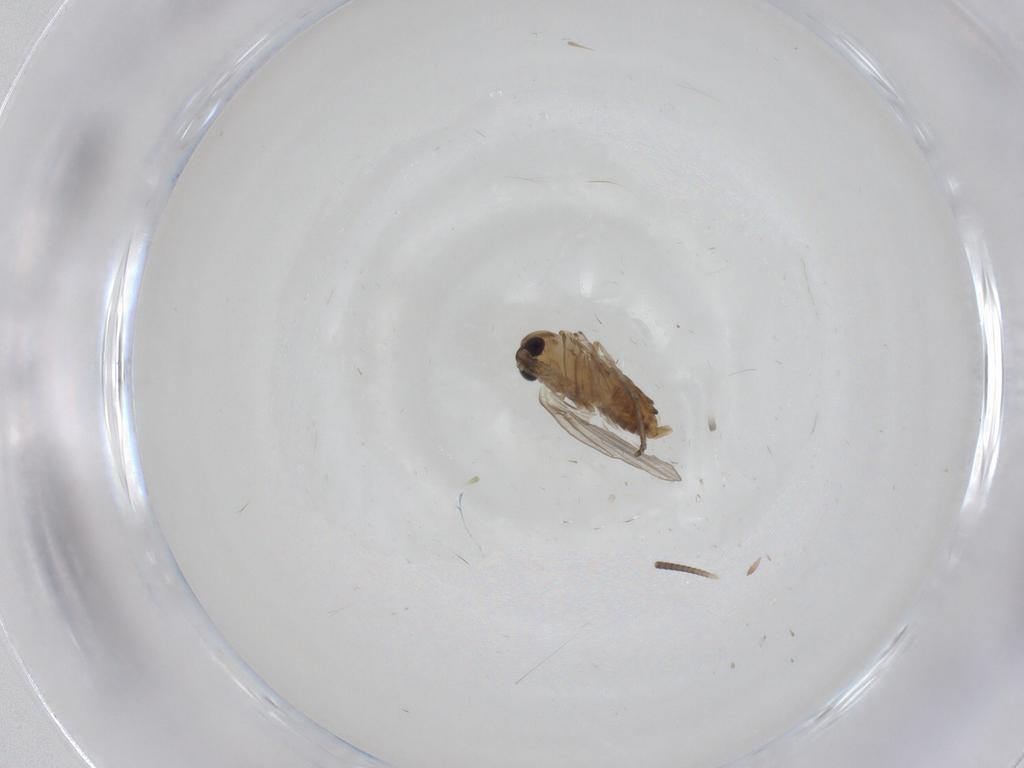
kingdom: Animalia
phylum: Arthropoda
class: Insecta
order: Diptera
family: Psychodidae
